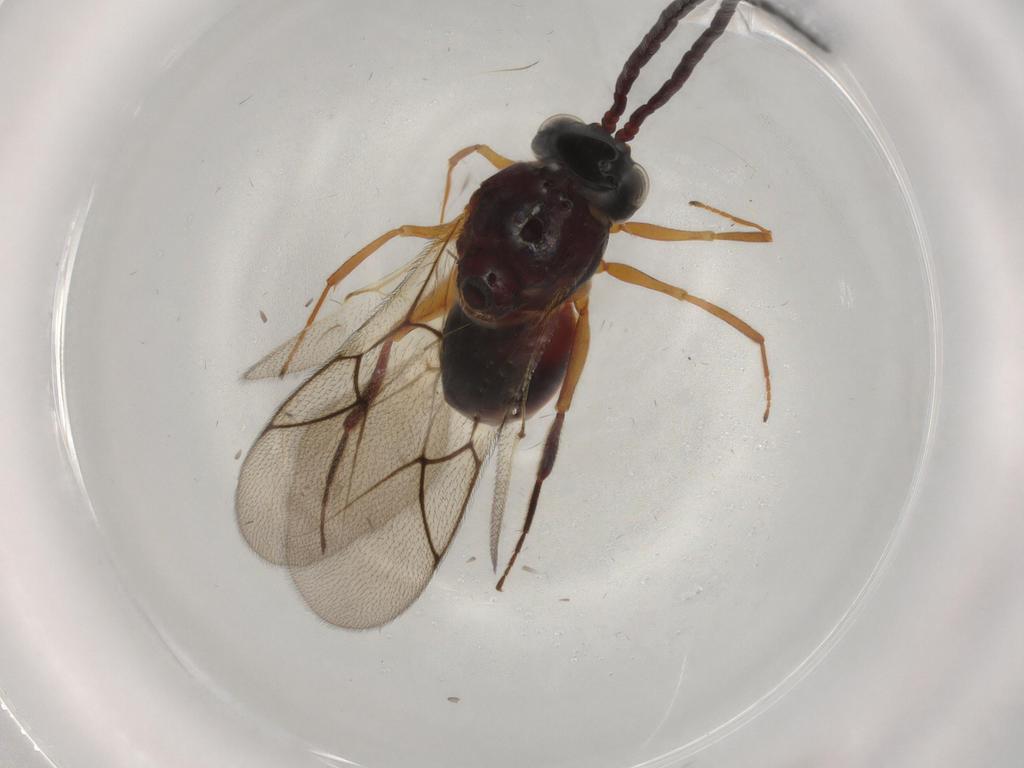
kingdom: Animalia
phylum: Arthropoda
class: Insecta
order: Hymenoptera
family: Figitidae
